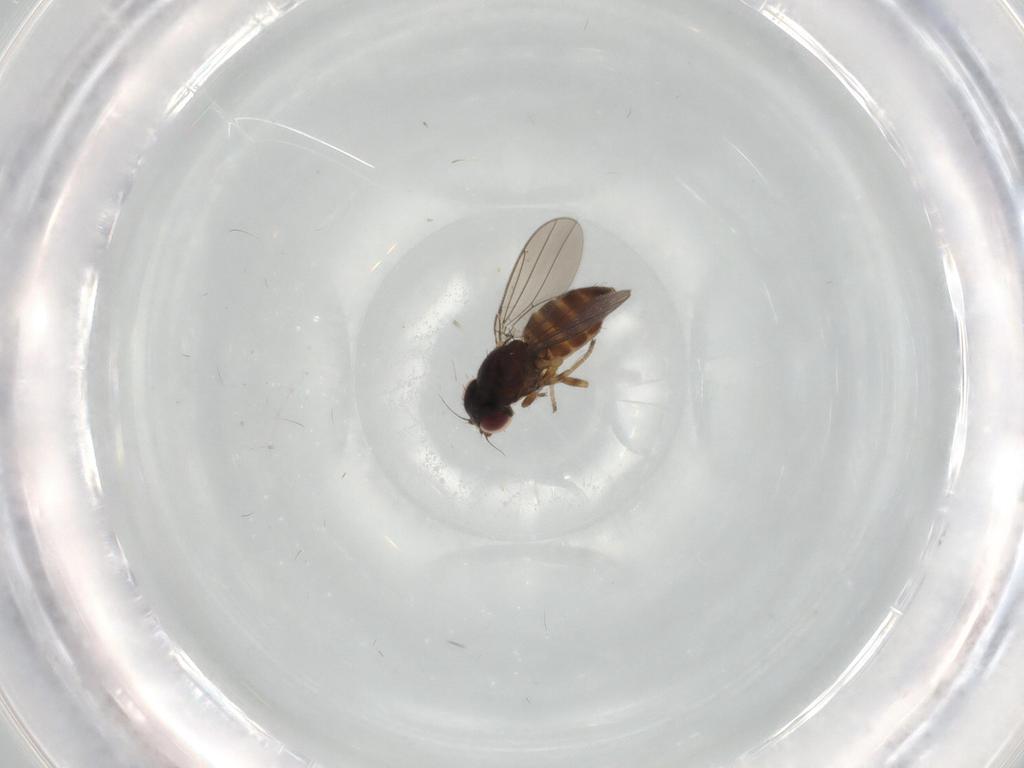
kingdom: Animalia
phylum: Arthropoda
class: Insecta
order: Diptera
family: Chloropidae
